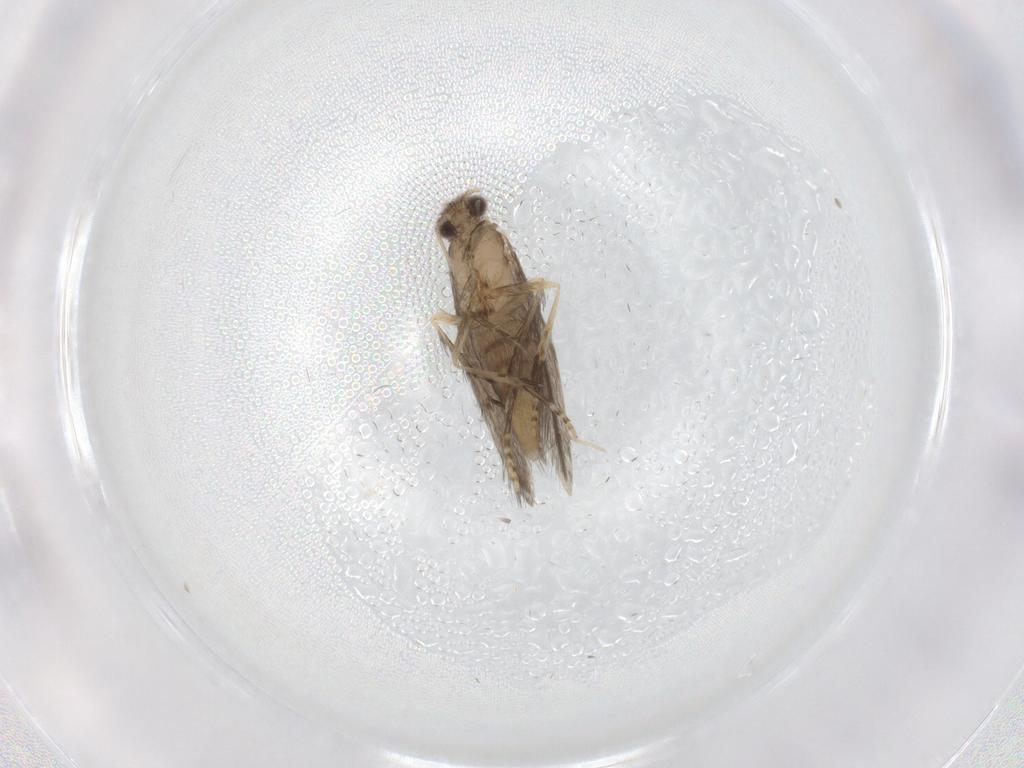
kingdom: Animalia
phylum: Arthropoda
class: Insecta
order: Trichoptera
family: Hydroptilidae
